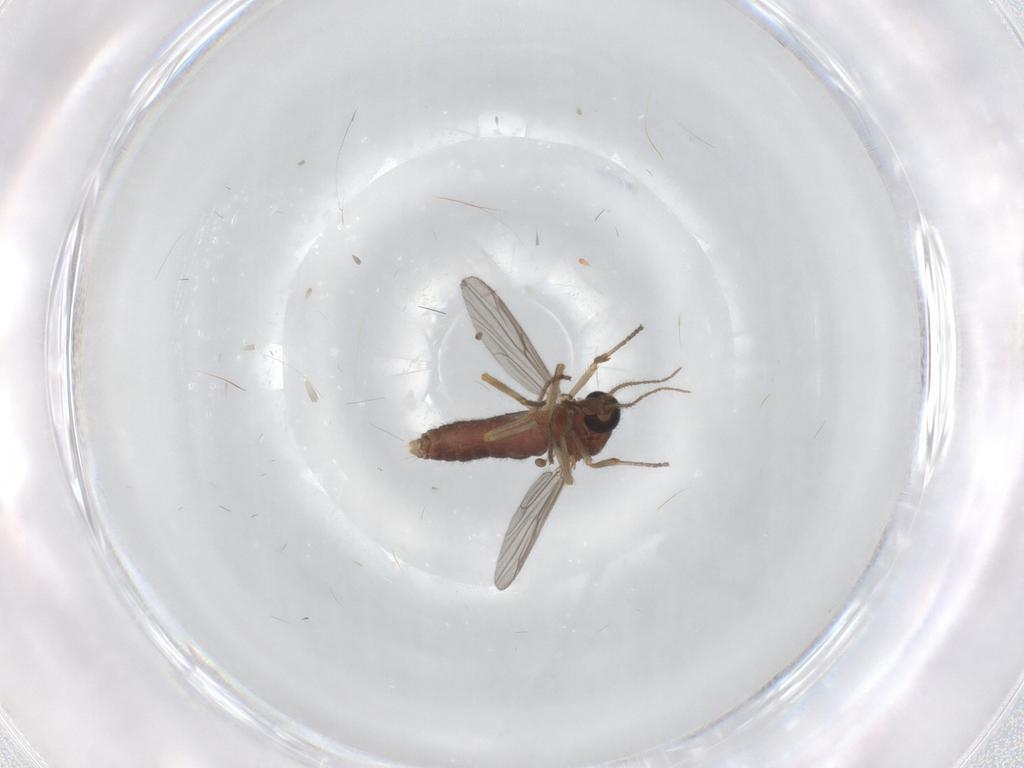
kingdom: Animalia
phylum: Arthropoda
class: Insecta
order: Diptera
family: Ceratopogonidae
